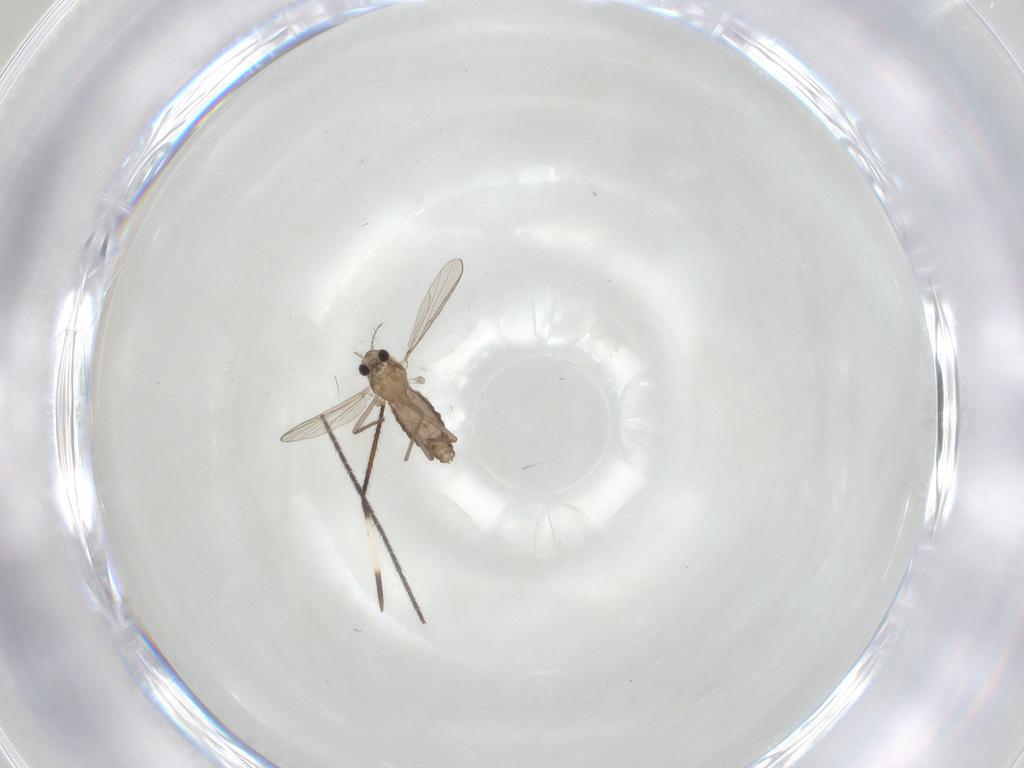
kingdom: Animalia
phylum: Arthropoda
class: Insecta
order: Diptera
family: Chironomidae
